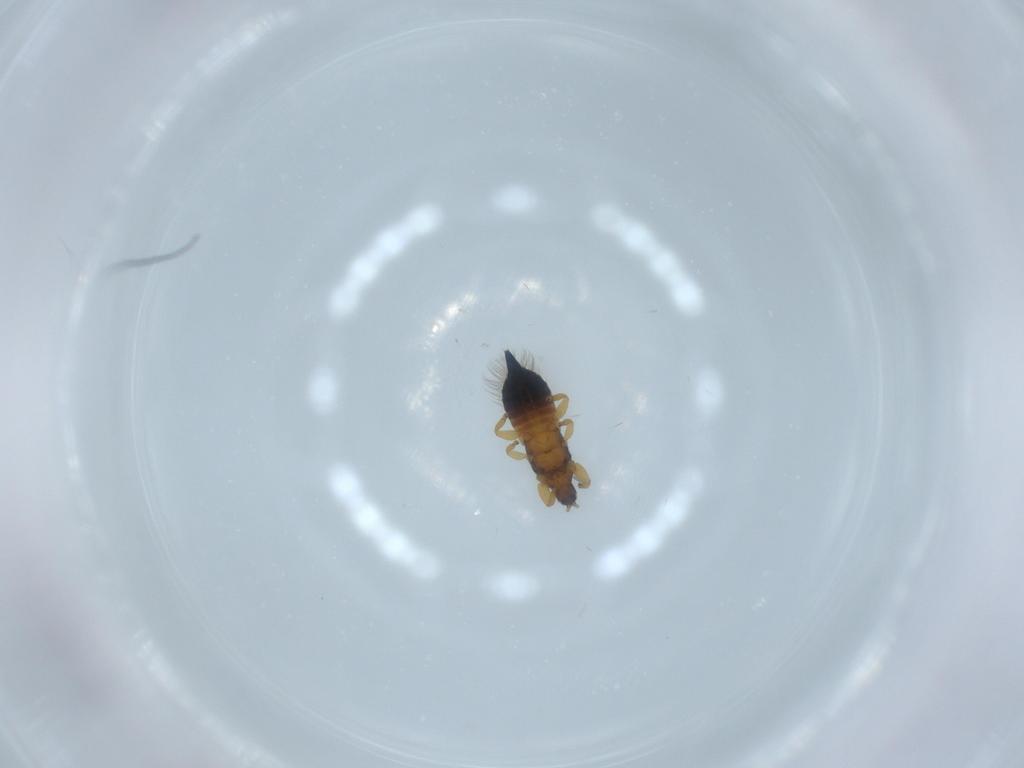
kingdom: Animalia
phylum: Arthropoda
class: Insecta
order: Thysanoptera
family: Phlaeothripidae
